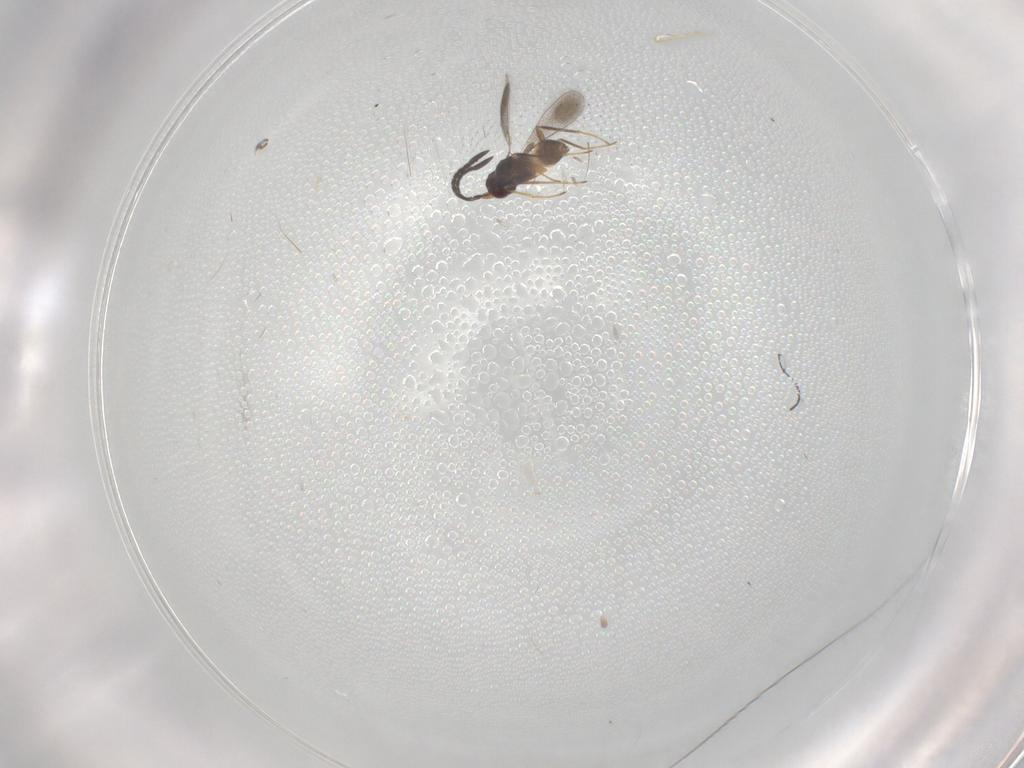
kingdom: Animalia
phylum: Arthropoda
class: Insecta
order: Hymenoptera
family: Mymaridae
